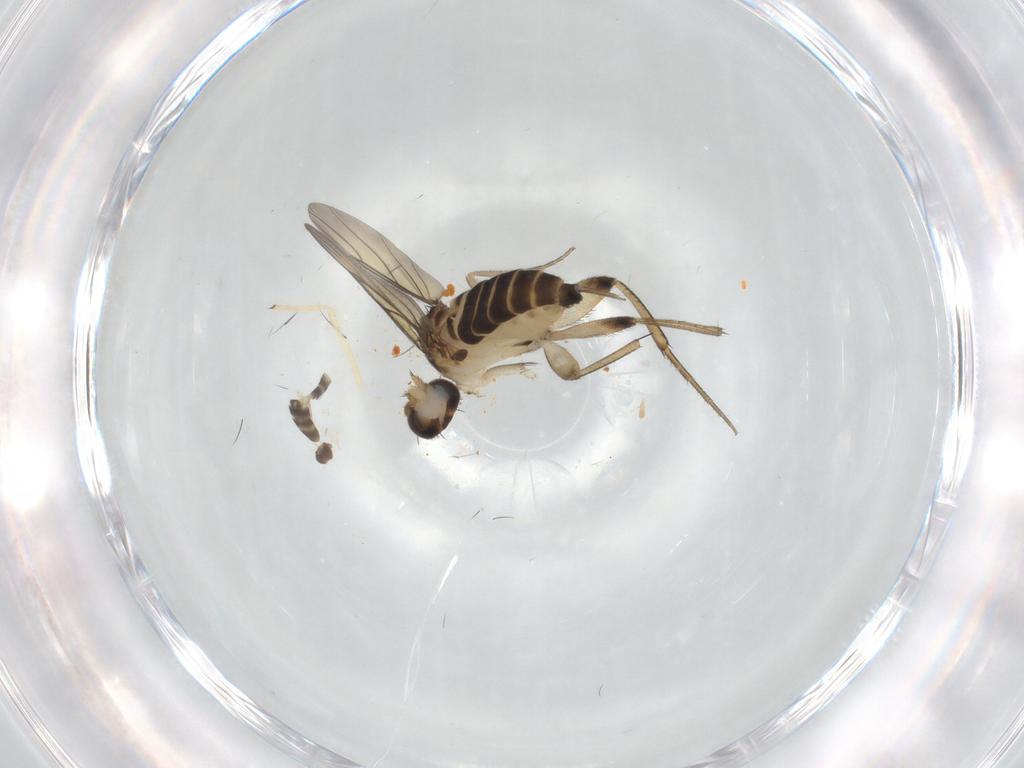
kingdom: Animalia
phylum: Arthropoda
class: Insecta
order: Diptera
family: Phoridae
